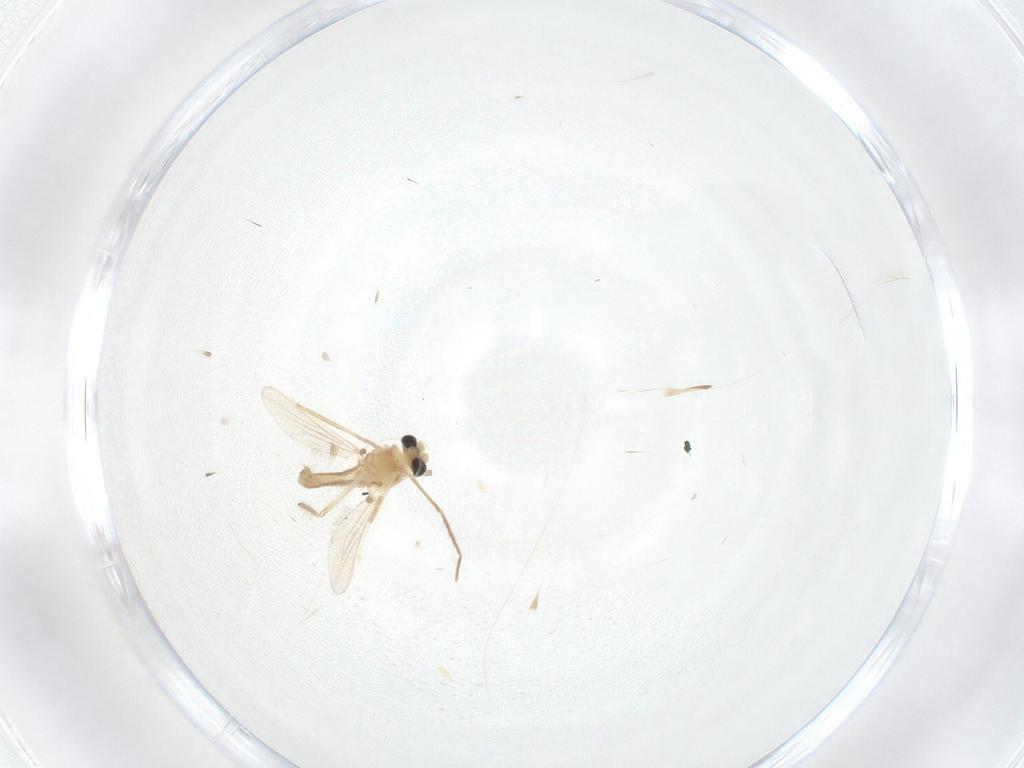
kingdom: Animalia
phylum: Arthropoda
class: Insecta
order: Diptera
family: Chironomidae
